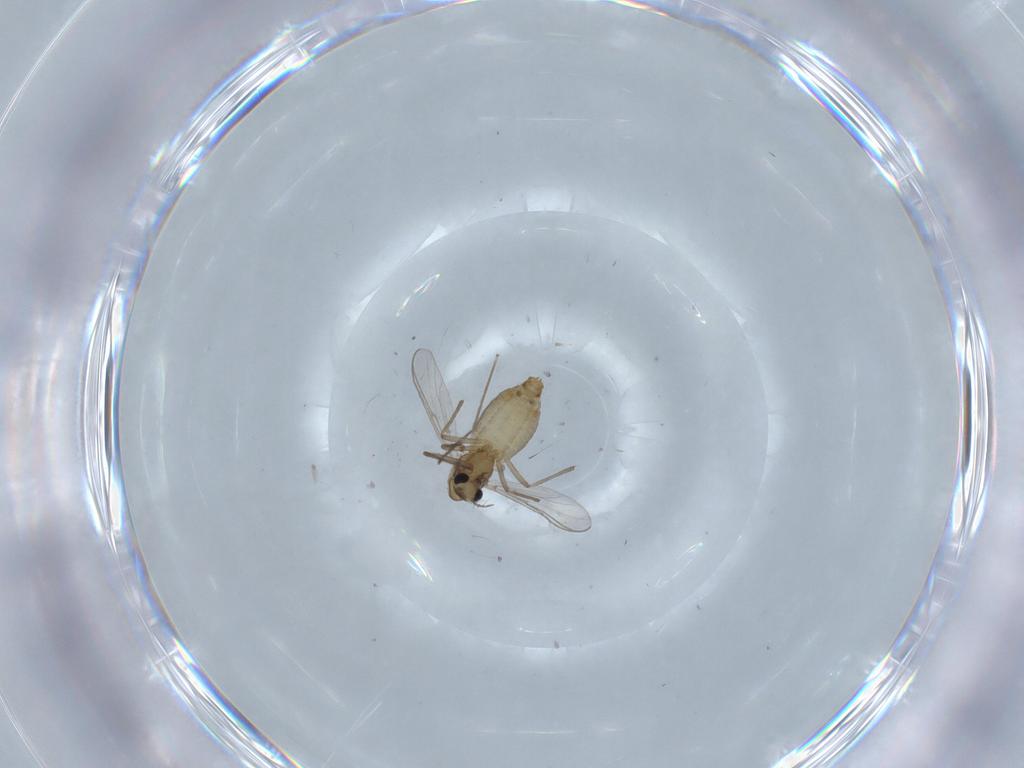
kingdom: Animalia
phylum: Arthropoda
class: Insecta
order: Diptera
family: Chironomidae
